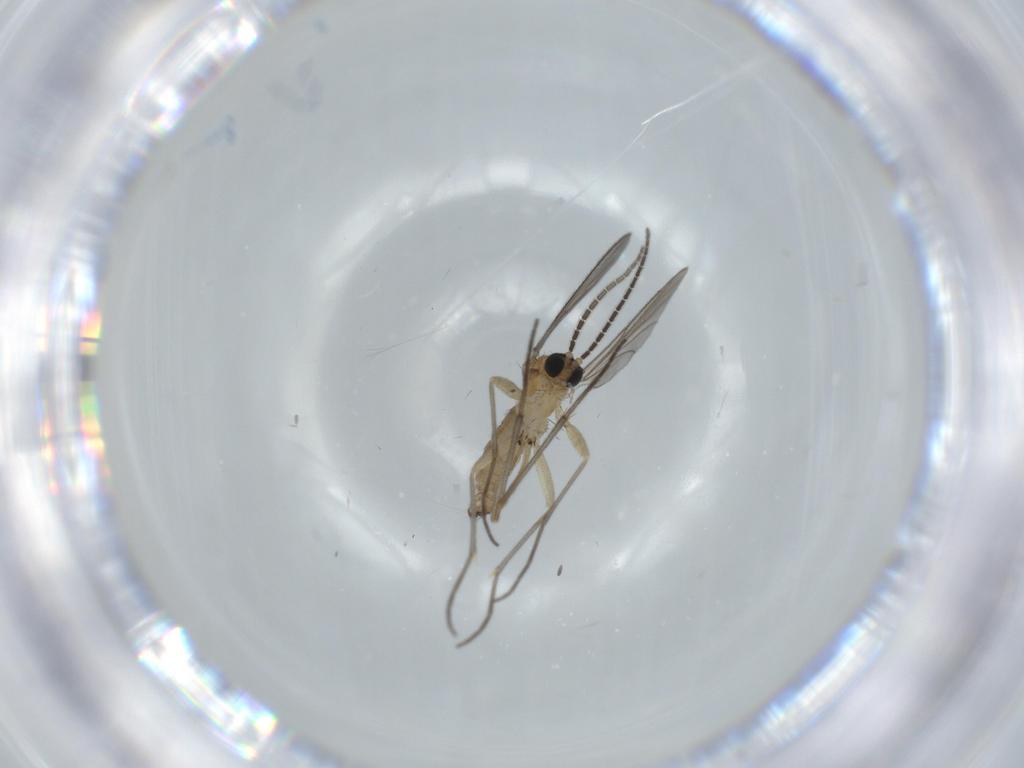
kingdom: Animalia
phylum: Arthropoda
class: Insecta
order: Diptera
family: Sciaridae
